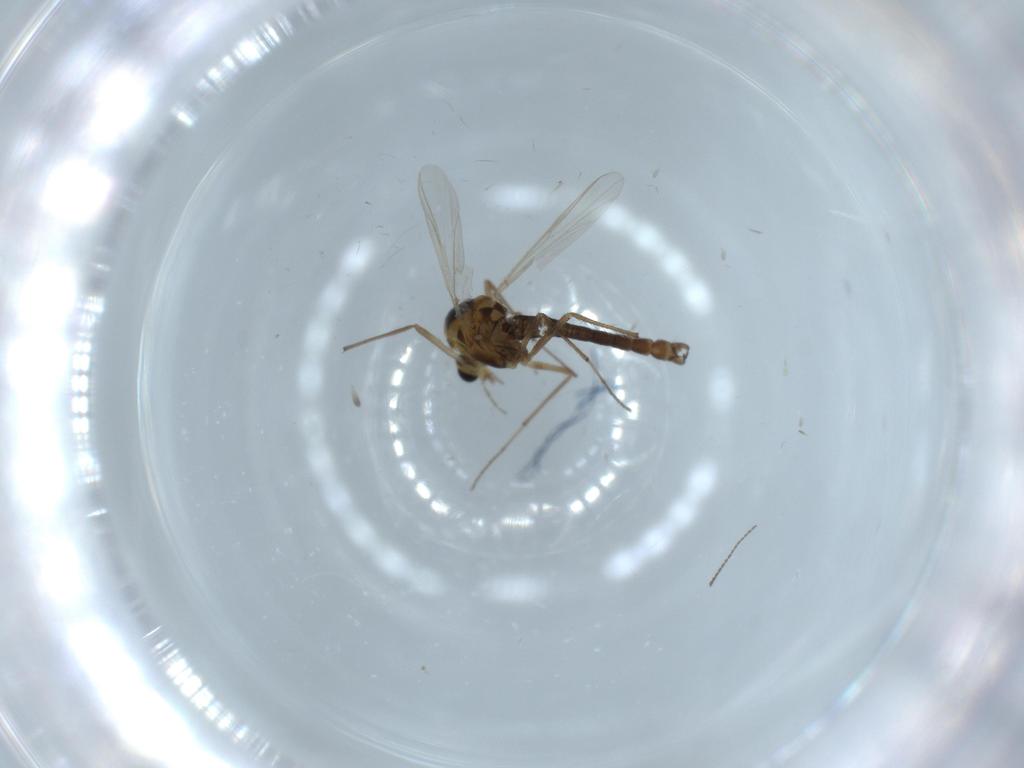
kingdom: Animalia
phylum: Arthropoda
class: Insecta
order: Diptera
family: Chironomidae
